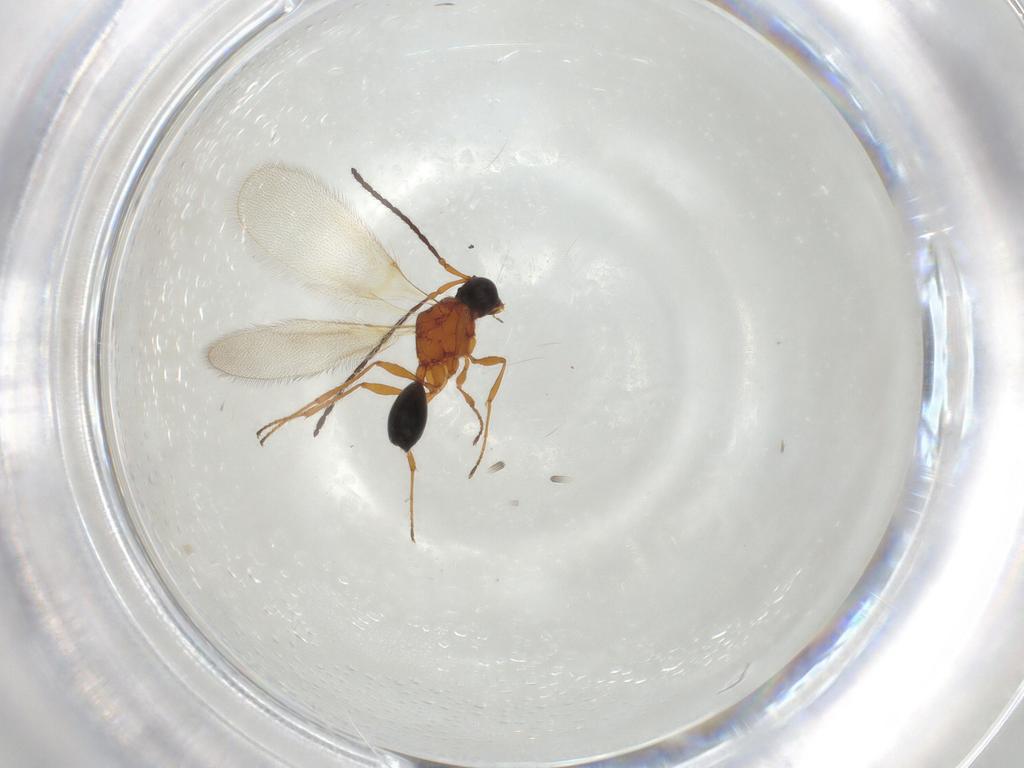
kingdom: Animalia
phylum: Arthropoda
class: Insecta
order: Hymenoptera
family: Diapriidae
